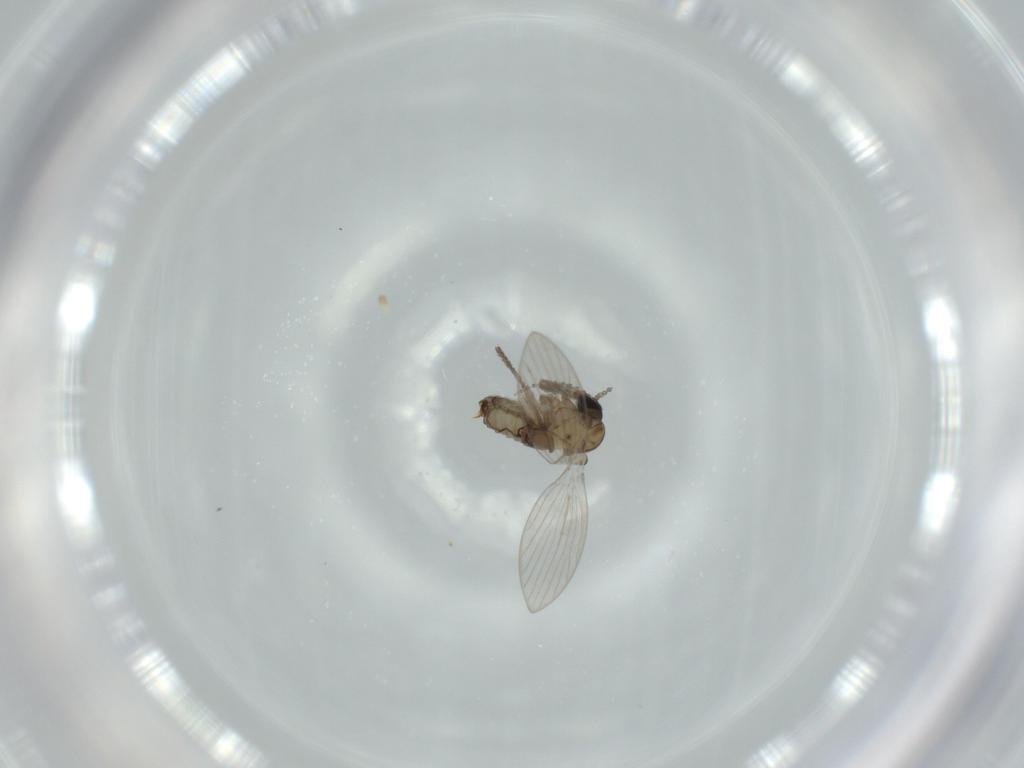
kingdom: Animalia
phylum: Arthropoda
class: Insecta
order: Diptera
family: Psychodidae
